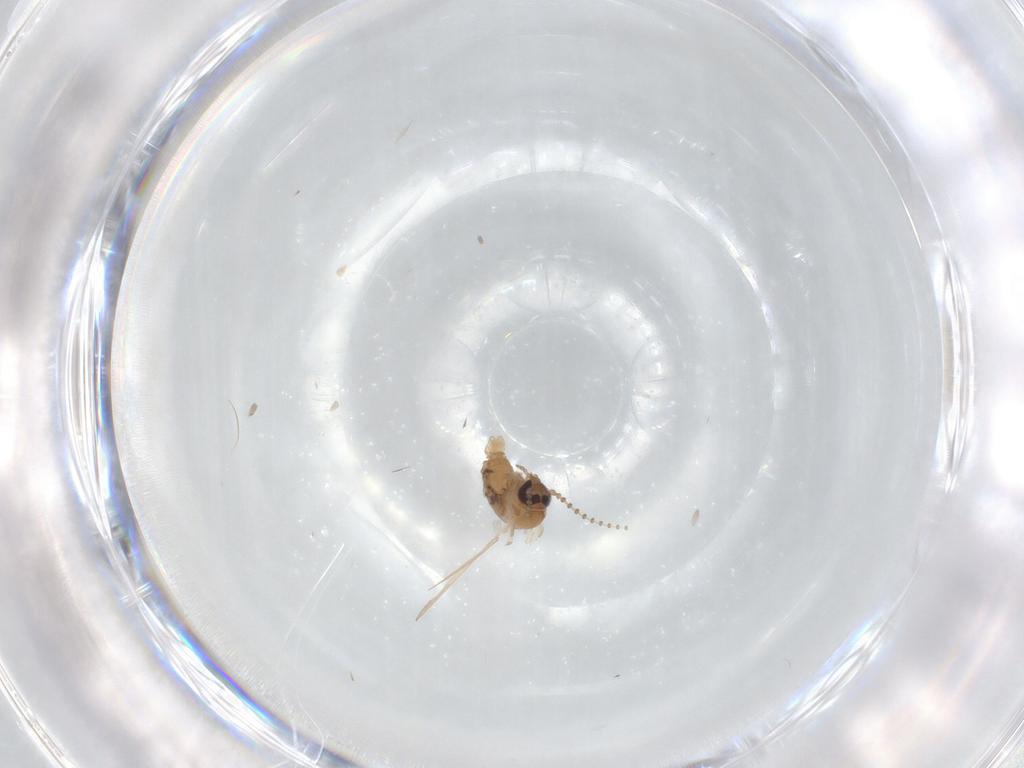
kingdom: Animalia
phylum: Arthropoda
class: Insecta
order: Diptera
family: Psychodidae
